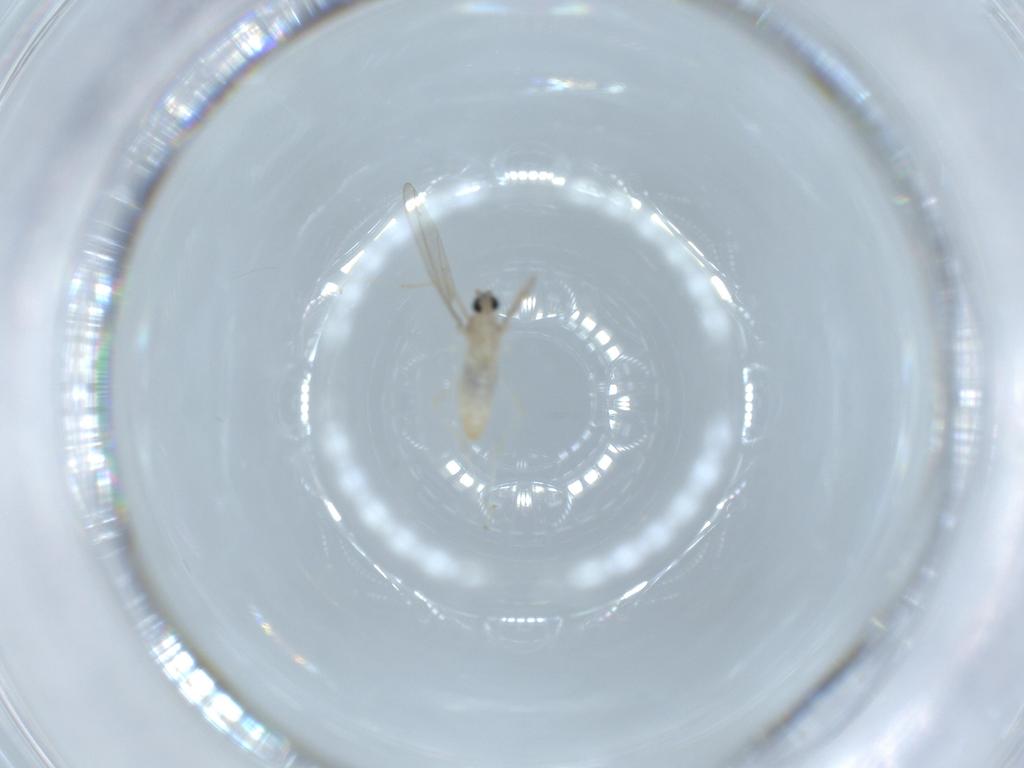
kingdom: Animalia
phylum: Arthropoda
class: Insecta
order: Diptera
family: Cecidomyiidae
